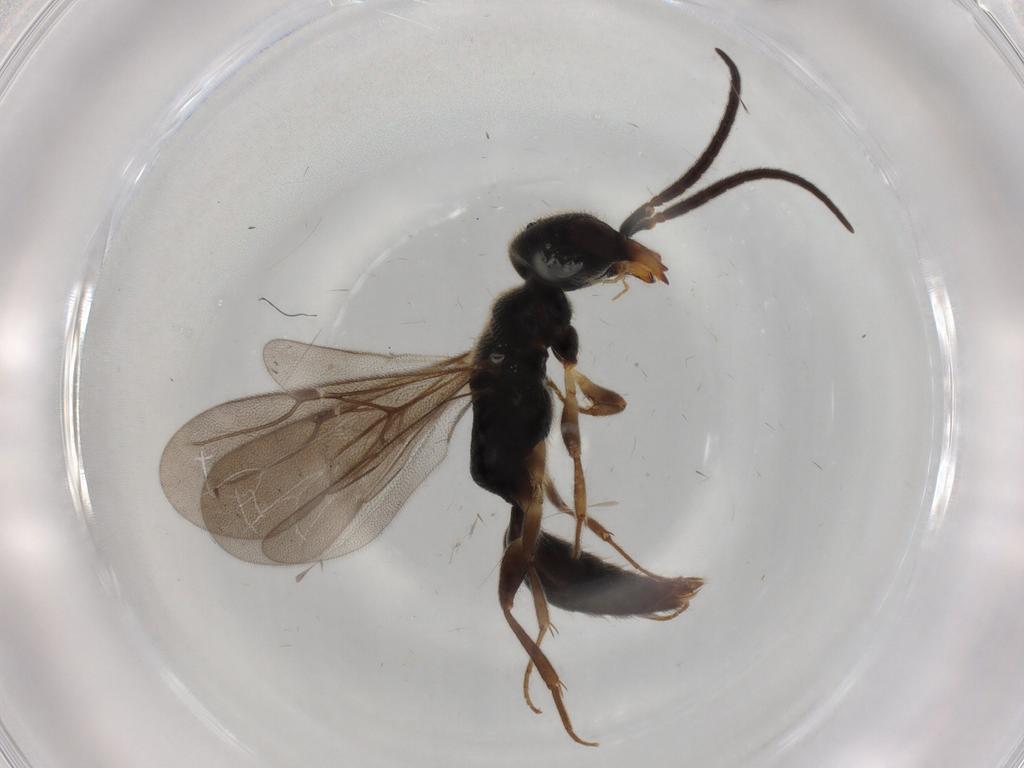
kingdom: Animalia
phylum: Arthropoda
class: Insecta
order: Hymenoptera
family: Bethylidae
